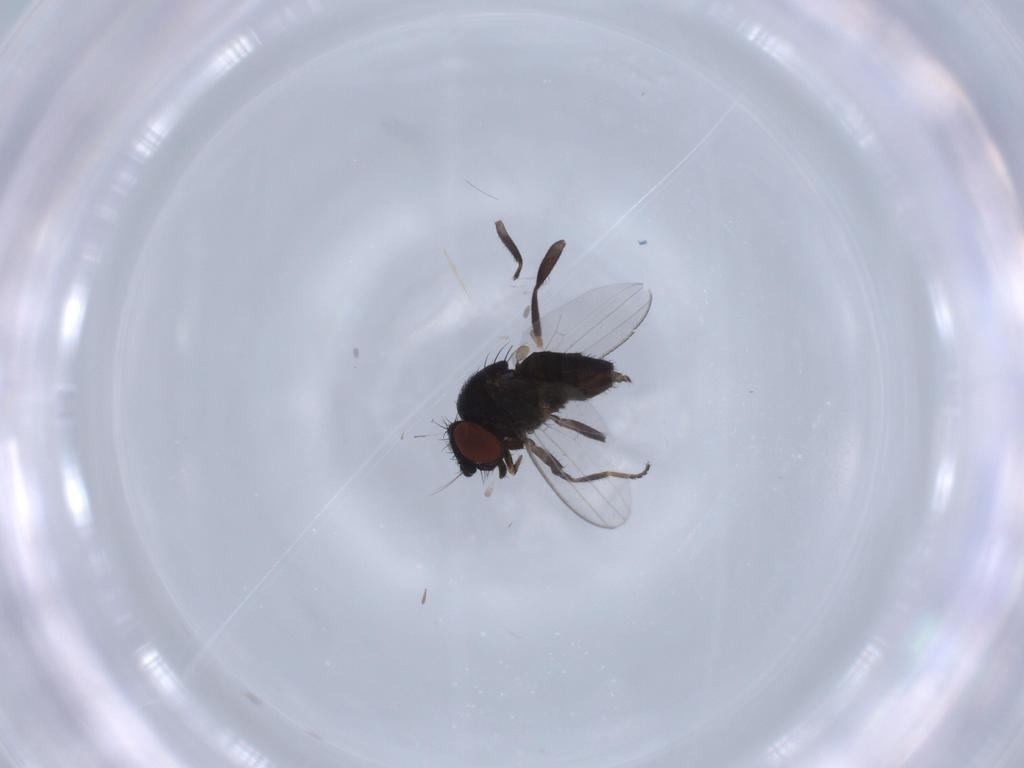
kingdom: Animalia
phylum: Arthropoda
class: Insecta
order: Diptera
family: Milichiidae
